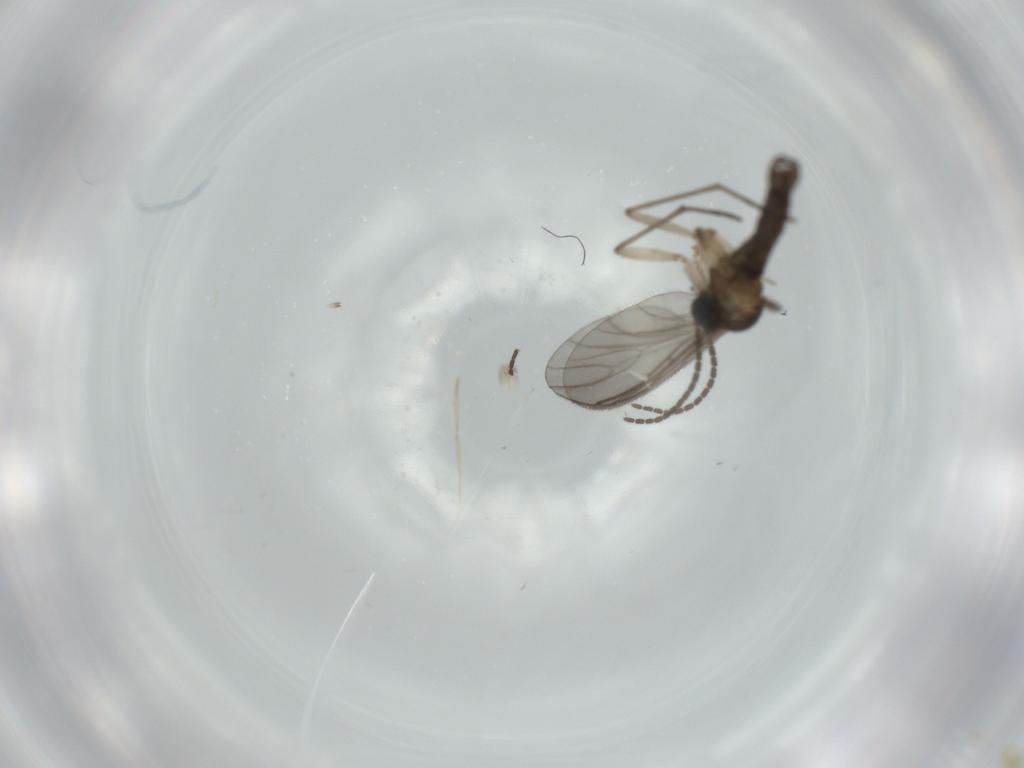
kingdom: Animalia
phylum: Arthropoda
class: Insecta
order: Diptera
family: Sciaridae
